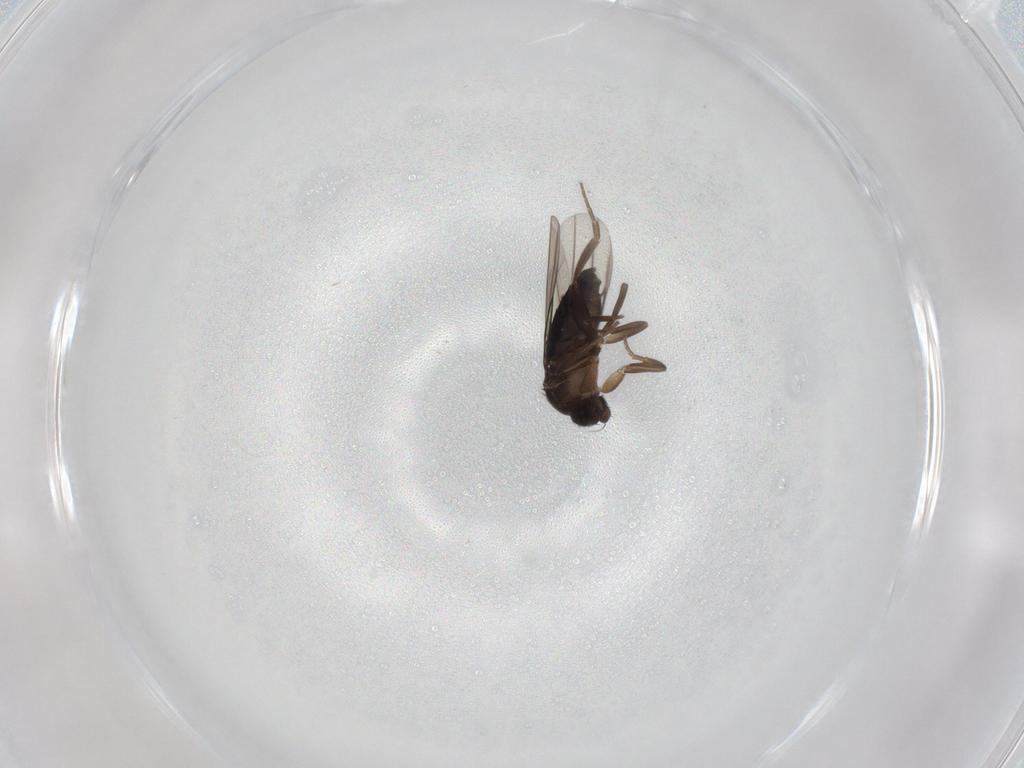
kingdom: Animalia
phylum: Arthropoda
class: Insecta
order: Diptera
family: Phoridae
